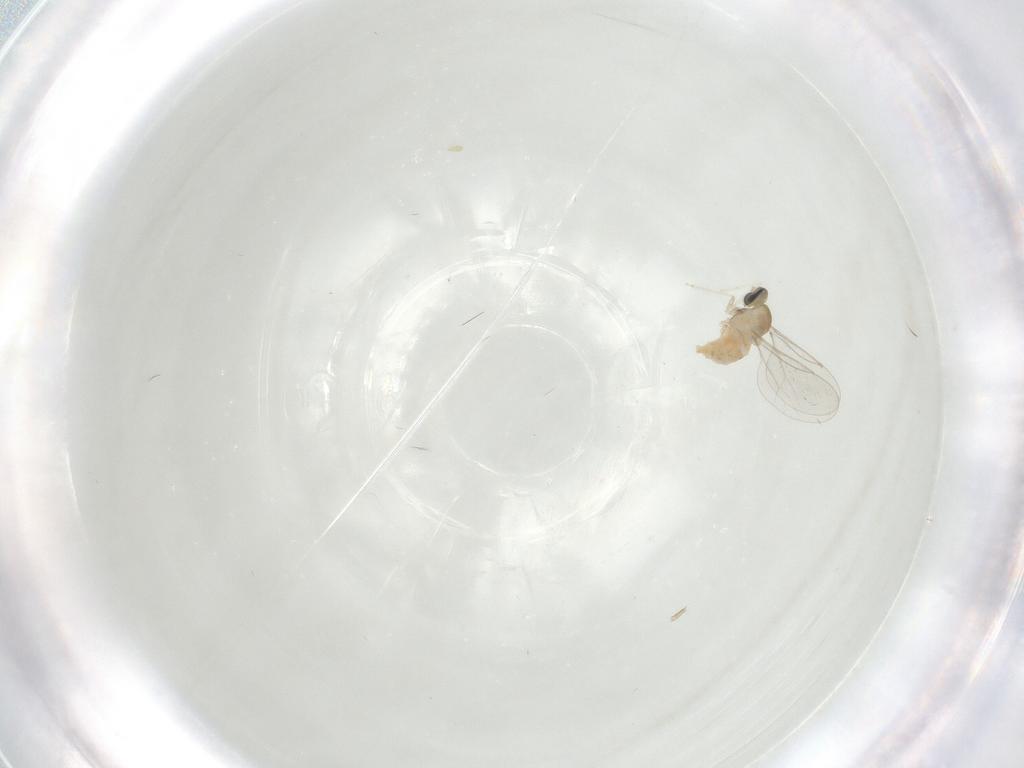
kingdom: Animalia
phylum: Arthropoda
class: Insecta
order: Diptera
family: Cecidomyiidae
